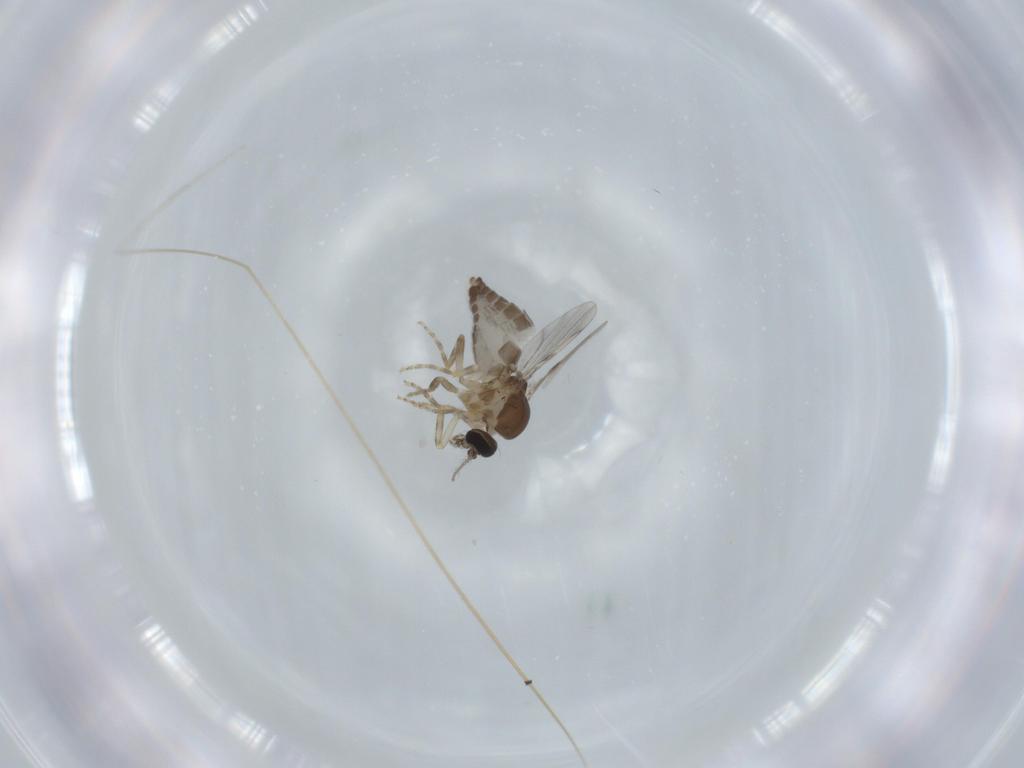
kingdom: Animalia
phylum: Arthropoda
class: Insecta
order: Diptera
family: Ceratopogonidae
